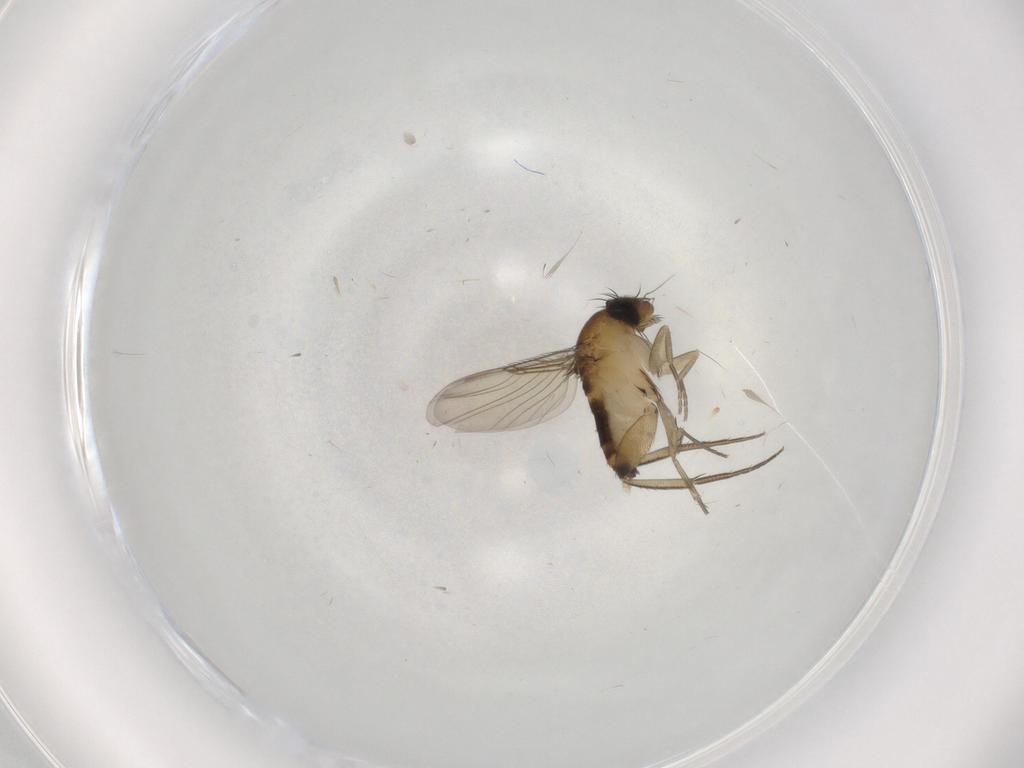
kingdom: Animalia
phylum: Arthropoda
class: Insecta
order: Diptera
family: Phoridae
